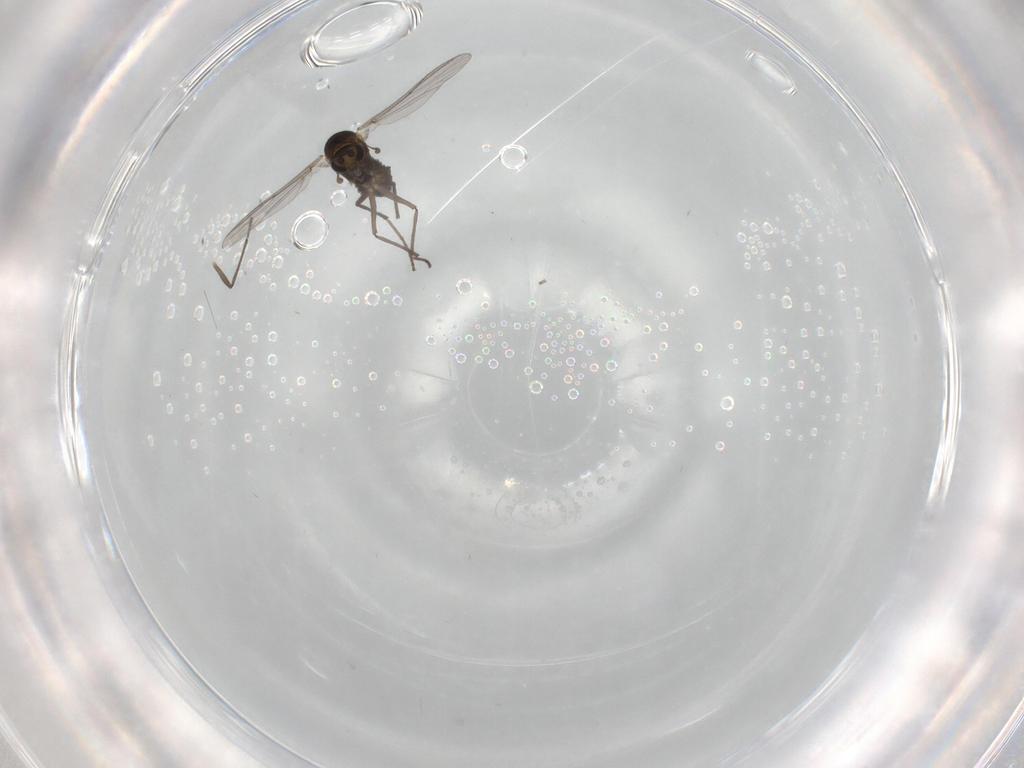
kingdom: Animalia
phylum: Arthropoda
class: Insecta
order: Diptera
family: Chironomidae
